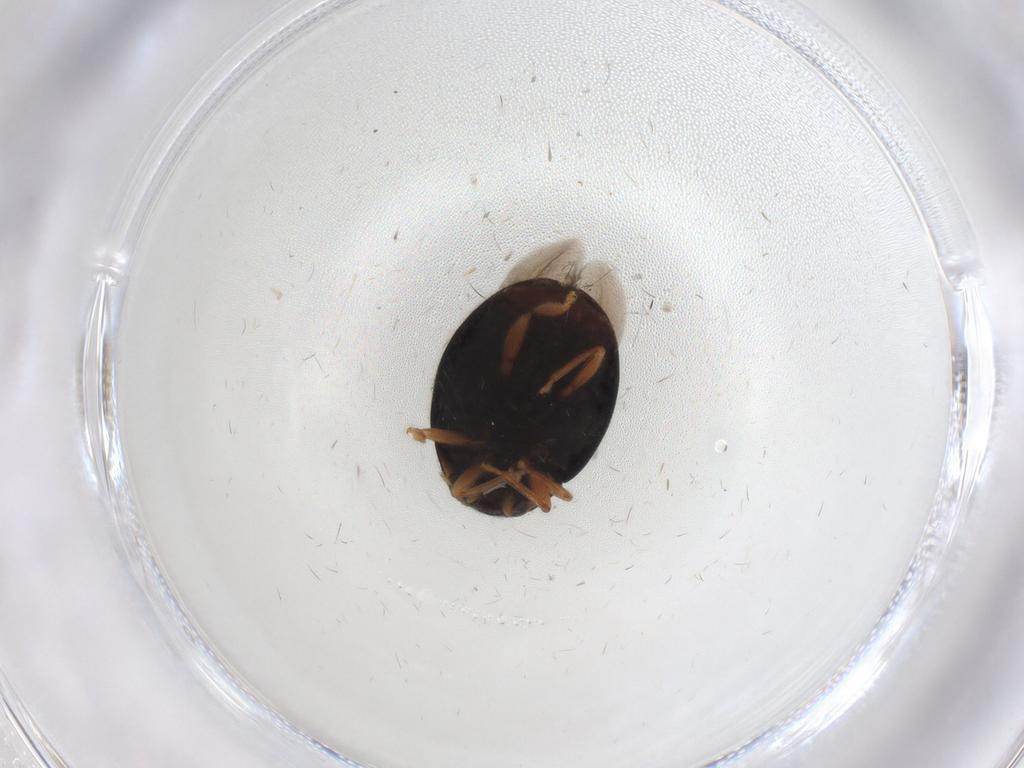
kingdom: Animalia
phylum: Arthropoda
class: Insecta
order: Coleoptera
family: Coccinellidae
